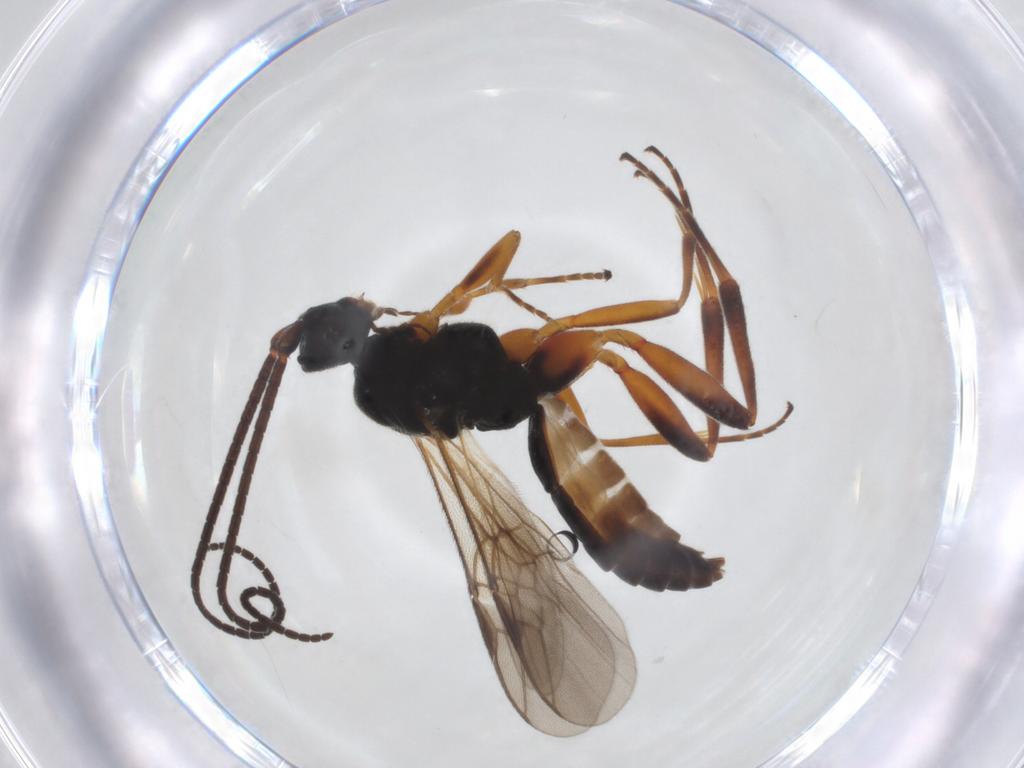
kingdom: Animalia
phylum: Arthropoda
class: Insecta
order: Hymenoptera
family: Braconidae
